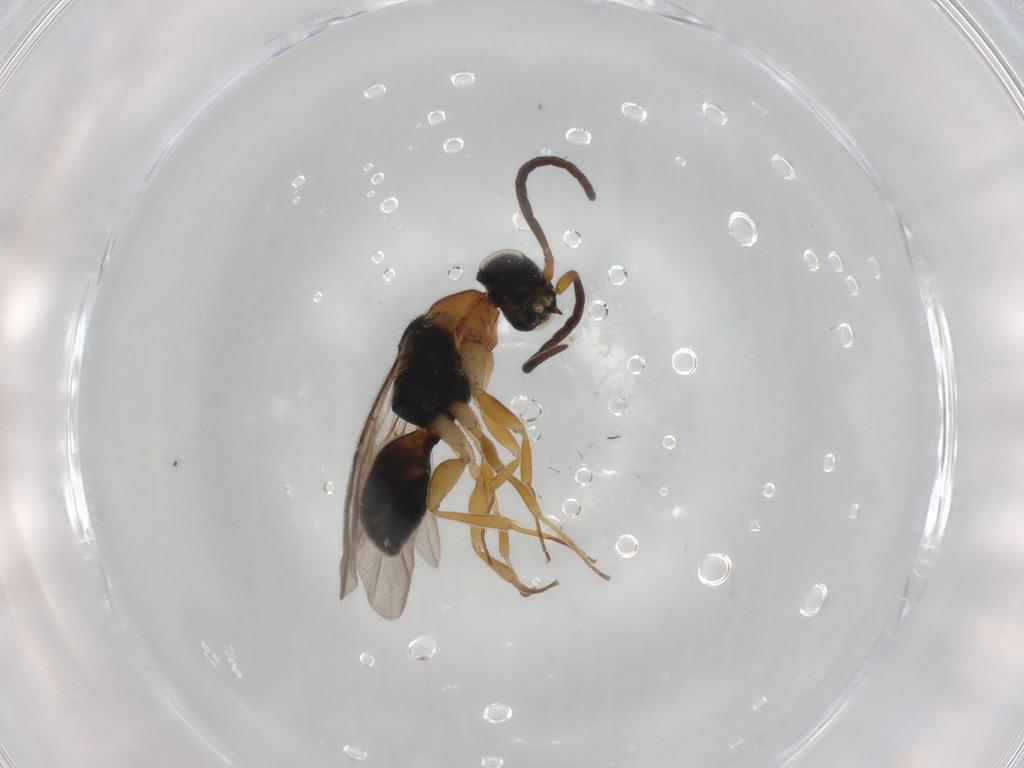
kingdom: Animalia
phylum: Arthropoda
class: Insecta
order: Hymenoptera
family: Chrysididae
